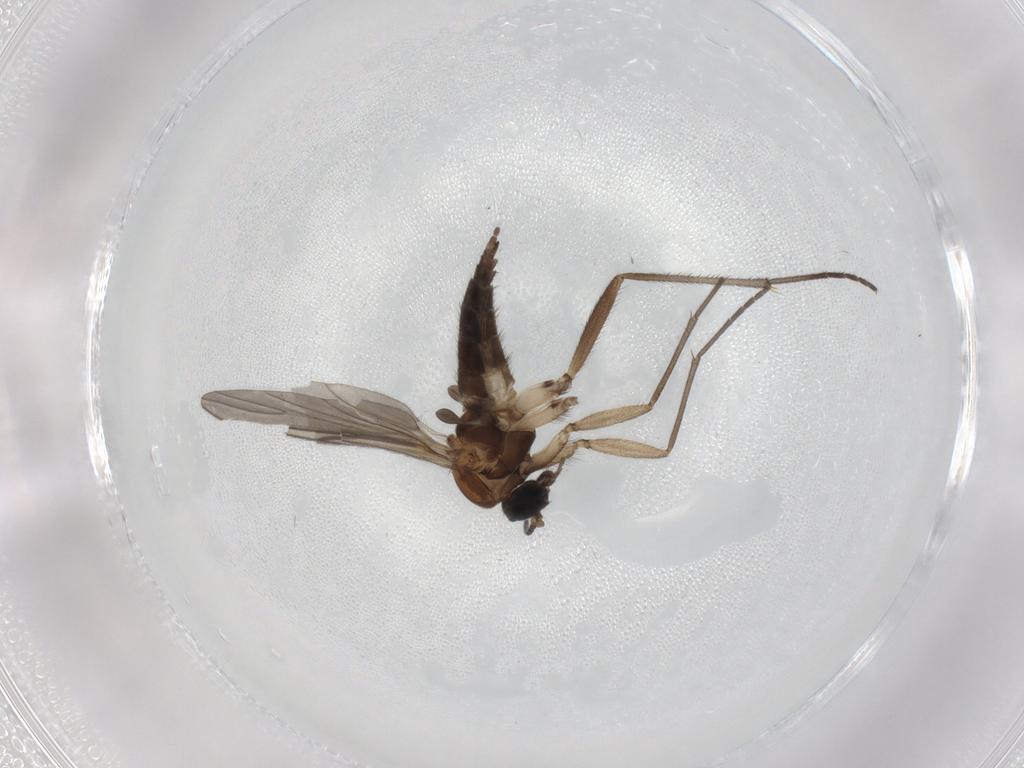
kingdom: Animalia
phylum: Arthropoda
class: Insecta
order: Diptera
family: Sciaridae
